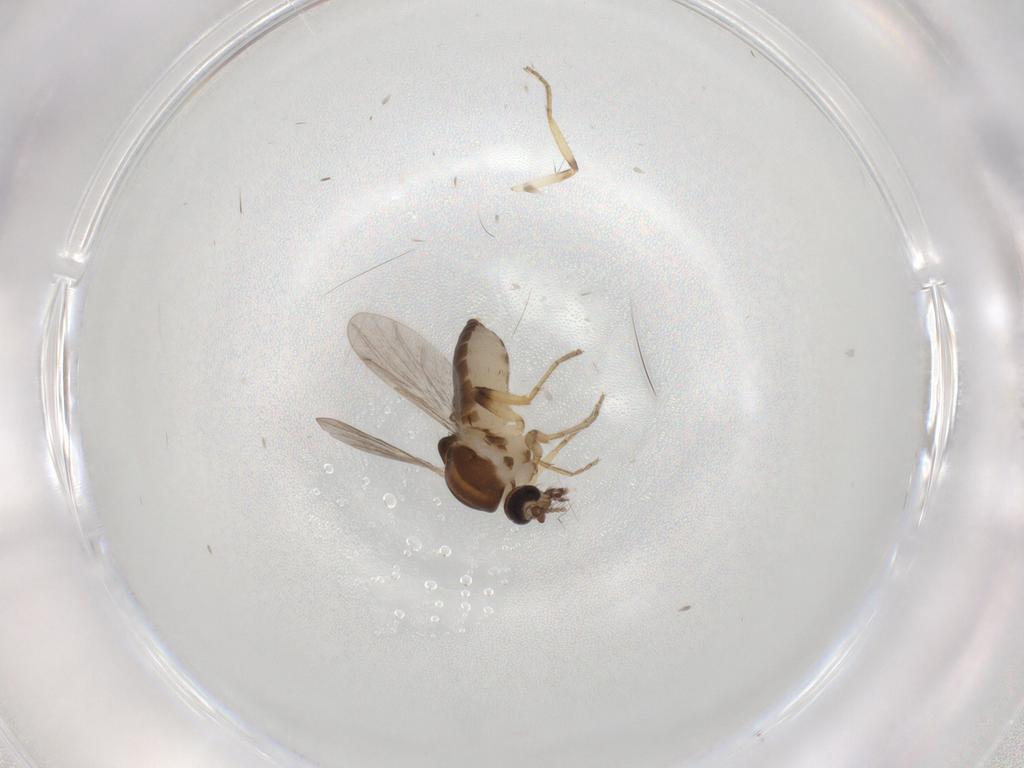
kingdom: Animalia
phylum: Arthropoda
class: Insecta
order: Diptera
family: Ceratopogonidae
